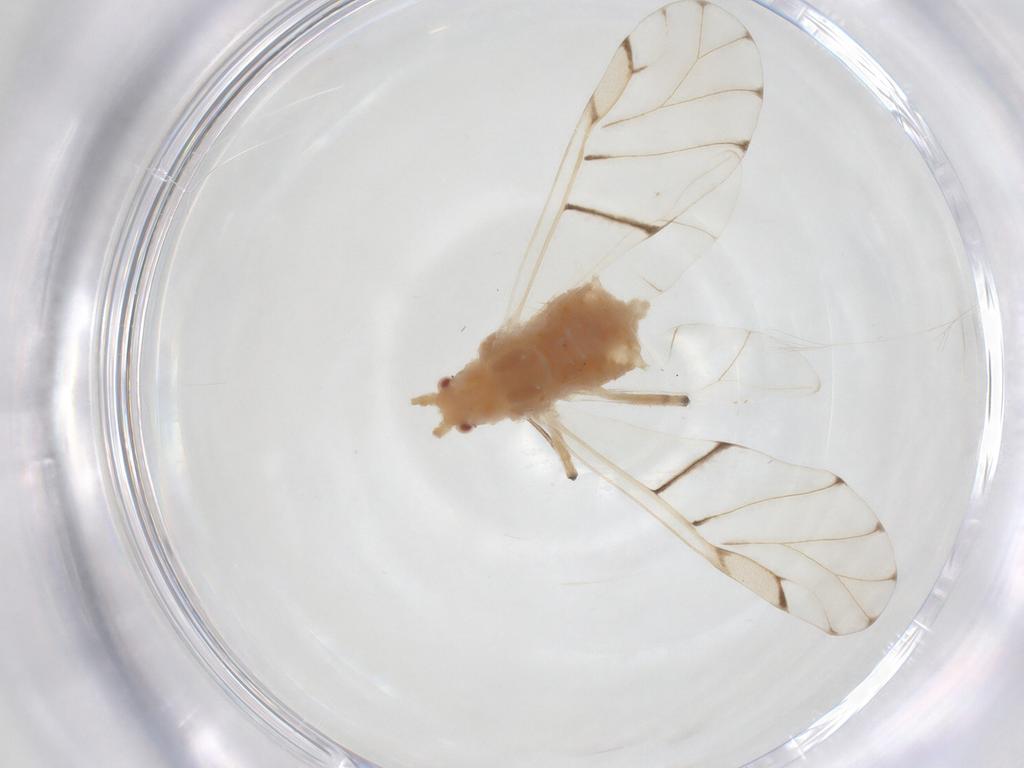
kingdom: Animalia
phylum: Arthropoda
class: Insecta
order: Hemiptera
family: Aphididae
